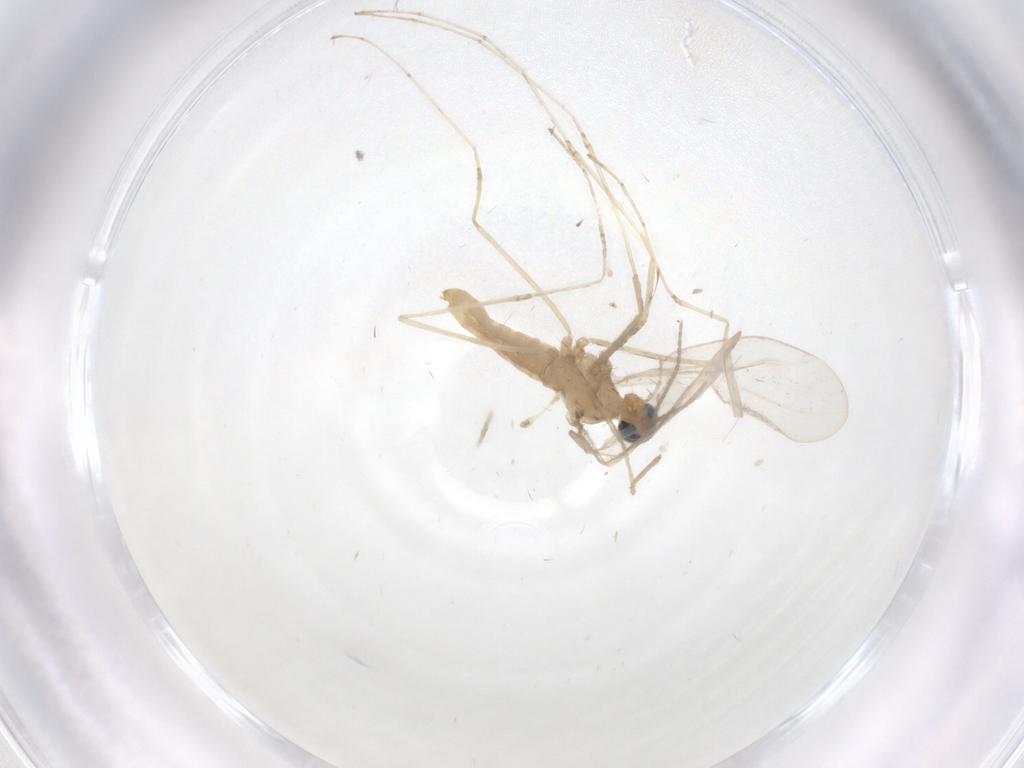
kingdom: Animalia
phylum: Arthropoda
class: Insecta
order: Diptera
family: Cecidomyiidae
